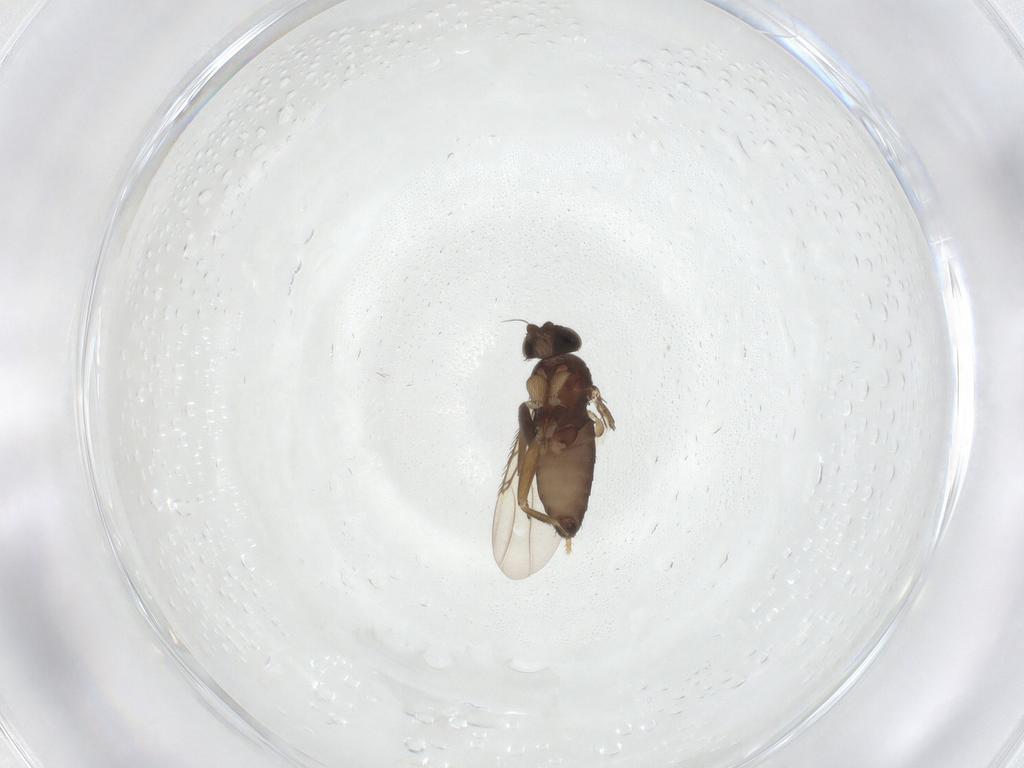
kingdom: Animalia
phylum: Arthropoda
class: Insecta
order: Diptera
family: Phoridae
